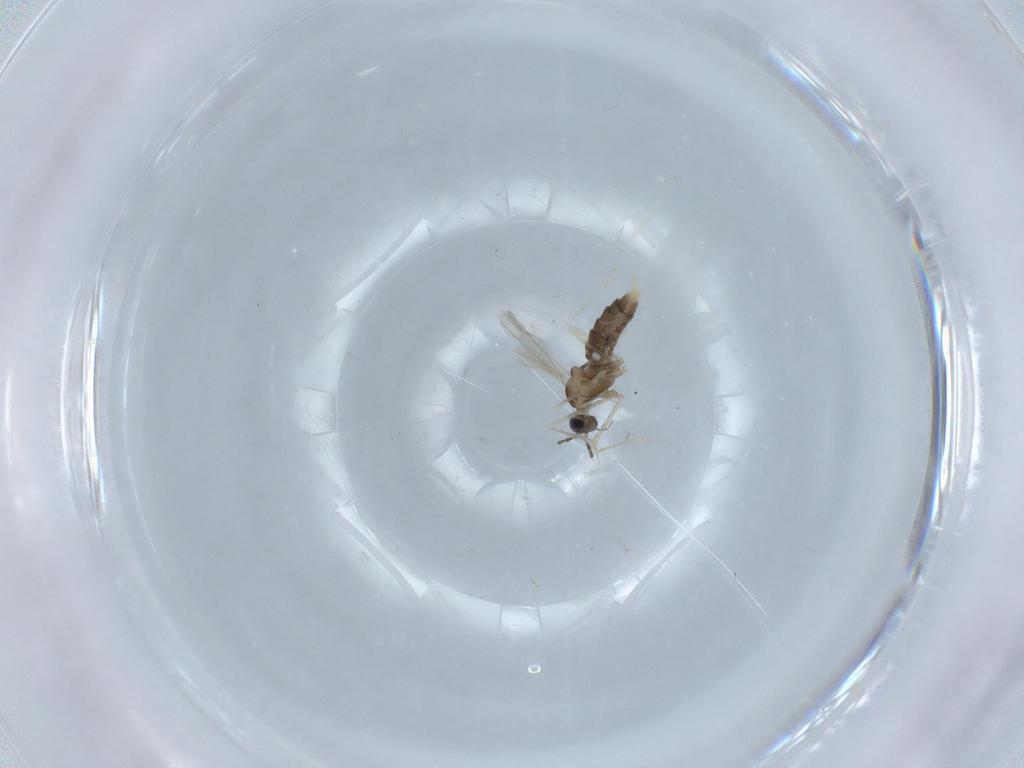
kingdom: Animalia
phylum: Arthropoda
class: Insecta
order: Diptera
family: Cecidomyiidae
